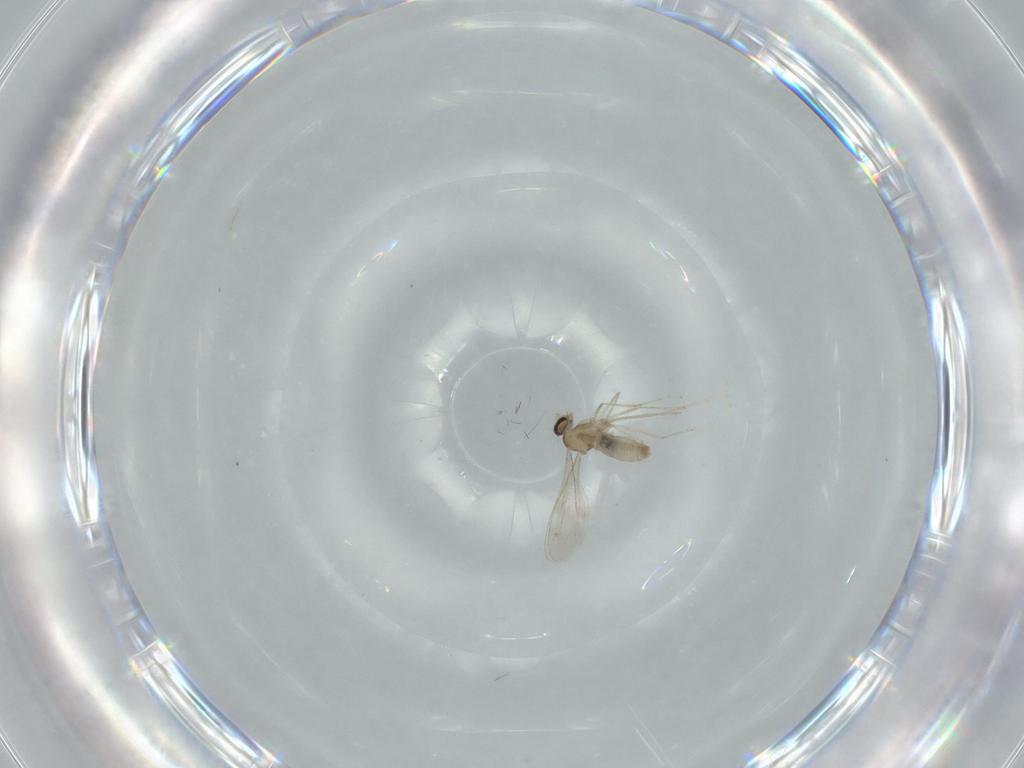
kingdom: Animalia
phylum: Arthropoda
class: Insecta
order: Diptera
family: Cecidomyiidae
